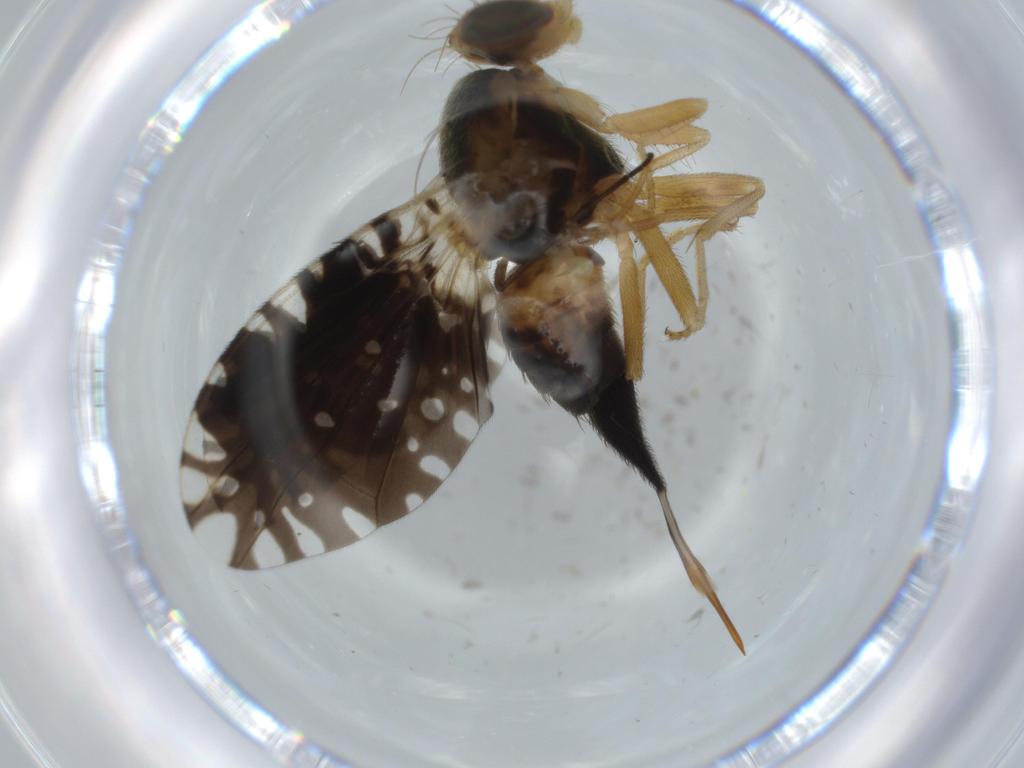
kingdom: Animalia
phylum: Arthropoda
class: Insecta
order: Diptera
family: Tephritidae
